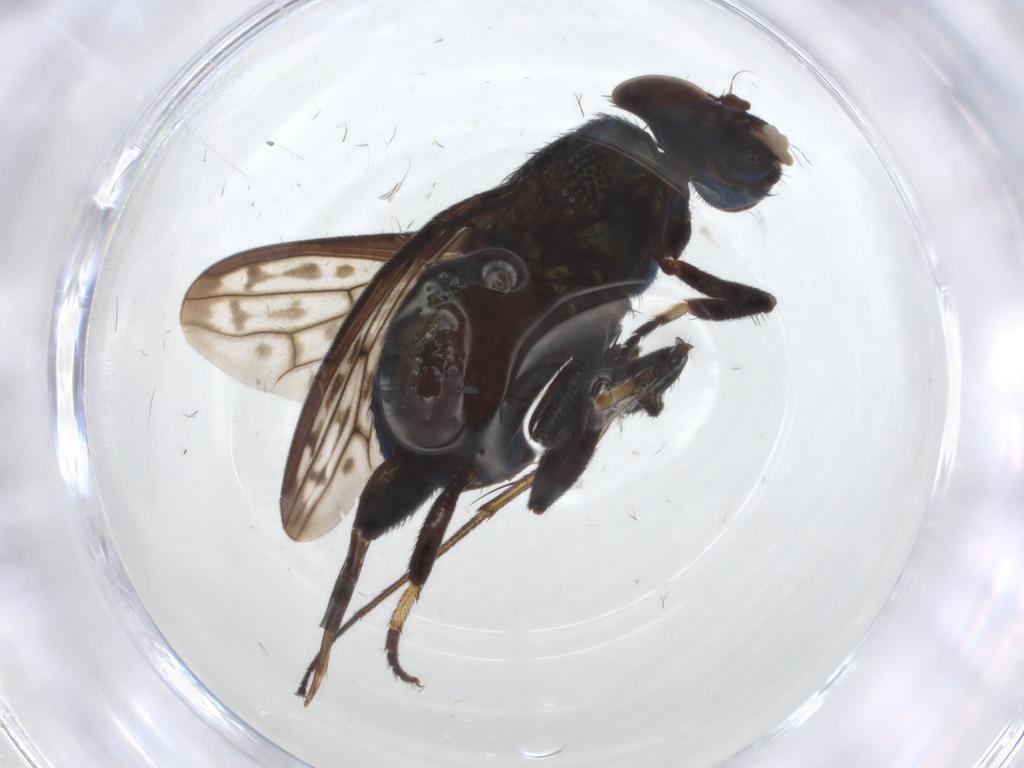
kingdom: Animalia
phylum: Arthropoda
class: Insecta
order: Diptera
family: Dolichopodidae
